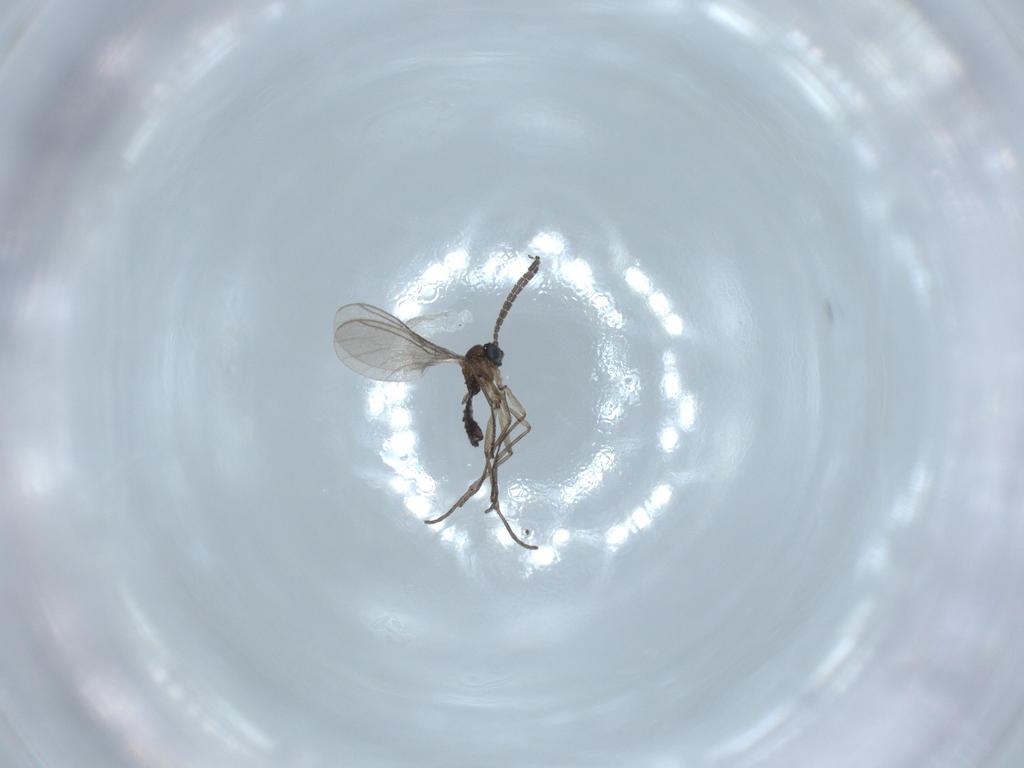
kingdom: Animalia
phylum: Arthropoda
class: Insecta
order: Diptera
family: Sciaridae
